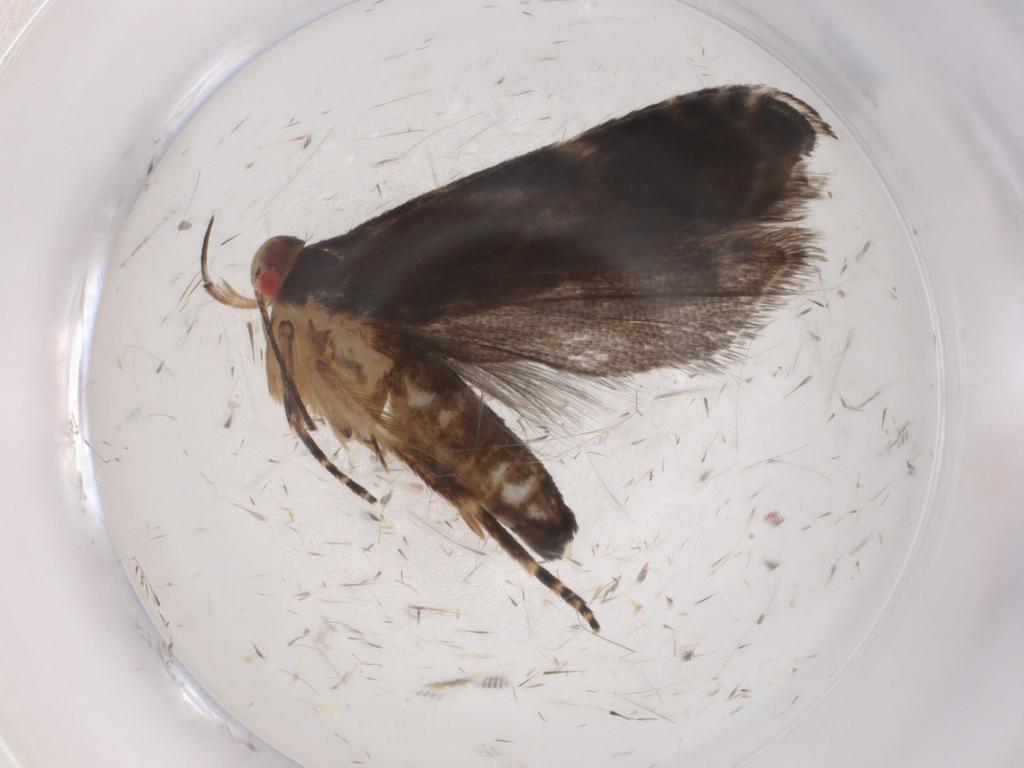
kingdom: Animalia
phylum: Arthropoda
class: Insecta
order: Lepidoptera
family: Gelechiidae
